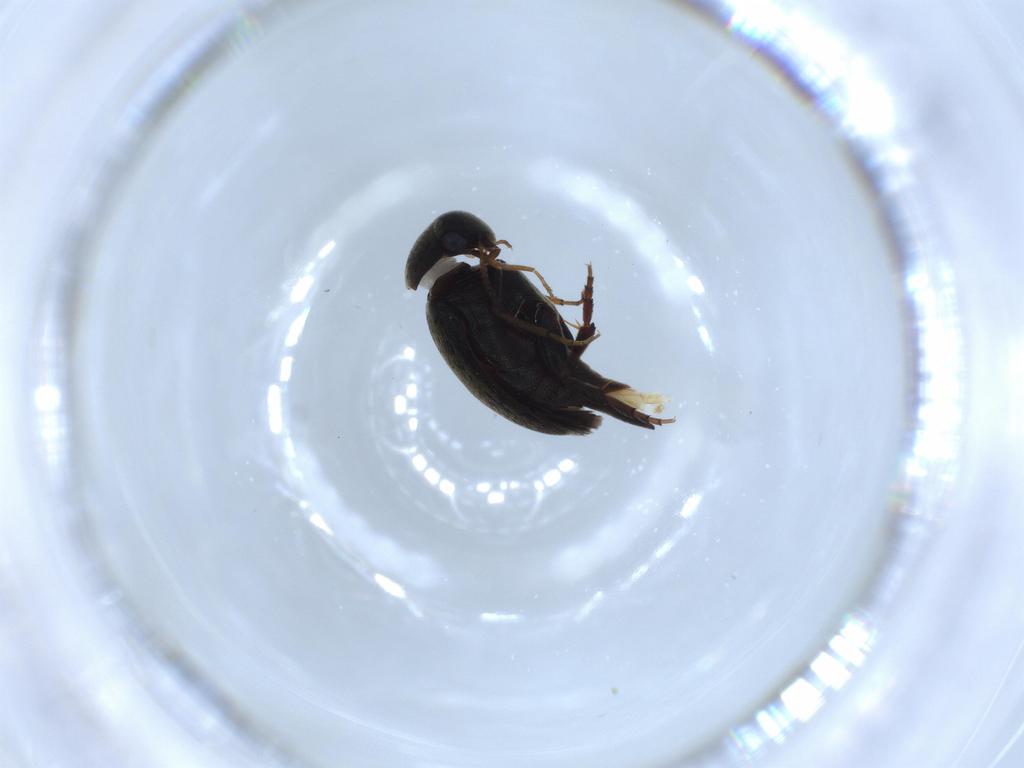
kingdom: Animalia
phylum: Arthropoda
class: Insecta
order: Coleoptera
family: Mordellidae
